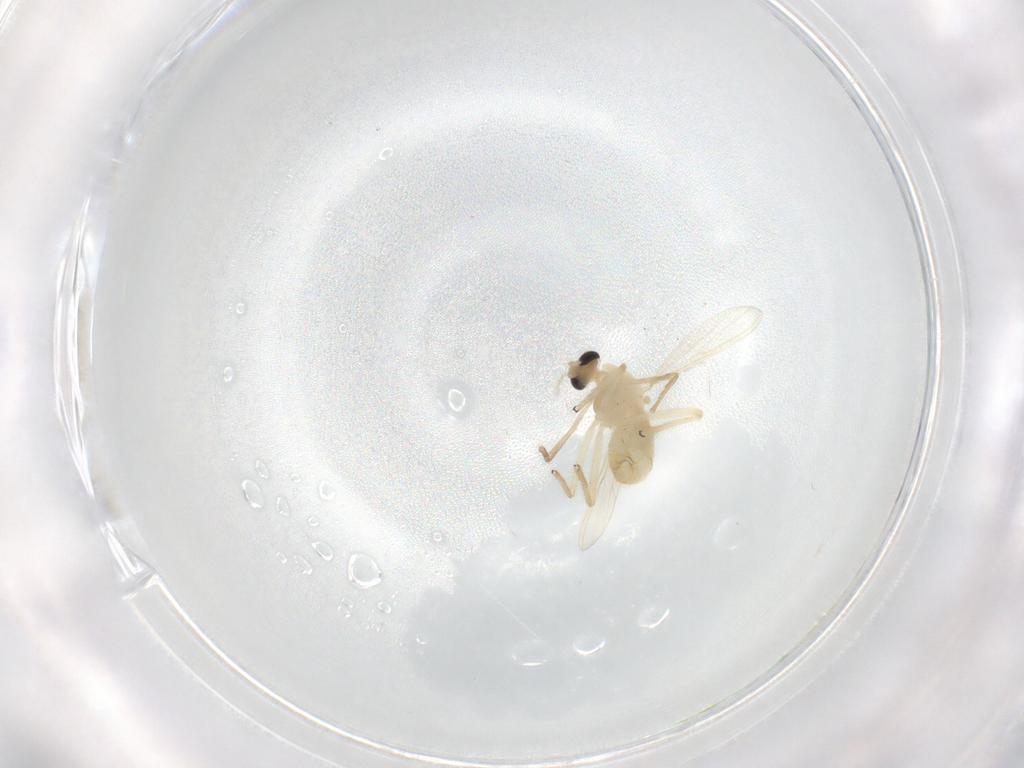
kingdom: Animalia
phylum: Arthropoda
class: Insecta
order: Diptera
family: Chironomidae
